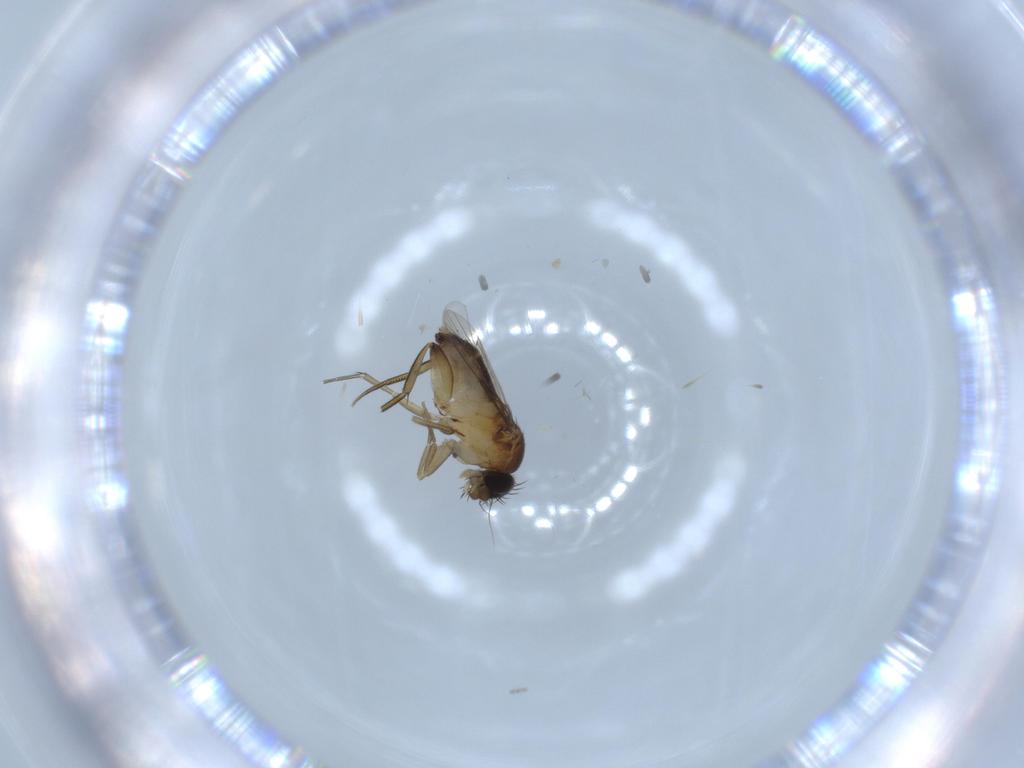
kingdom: Animalia
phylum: Arthropoda
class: Insecta
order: Diptera
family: Phoridae
